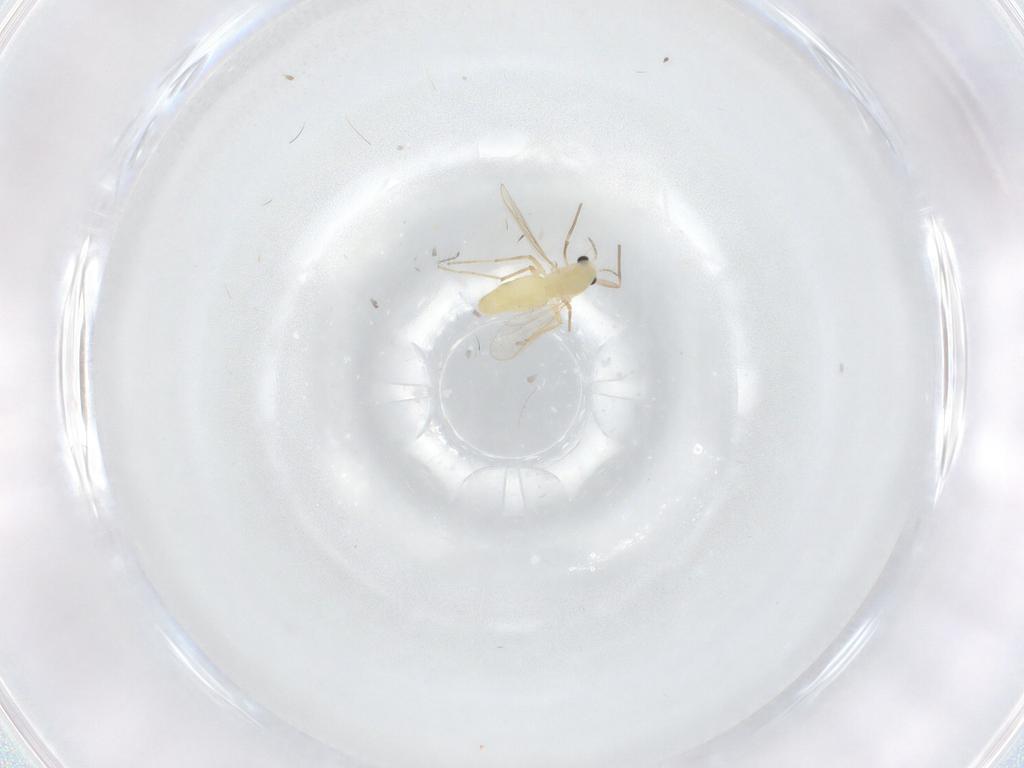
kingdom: Animalia
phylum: Arthropoda
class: Insecta
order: Diptera
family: Chironomidae
